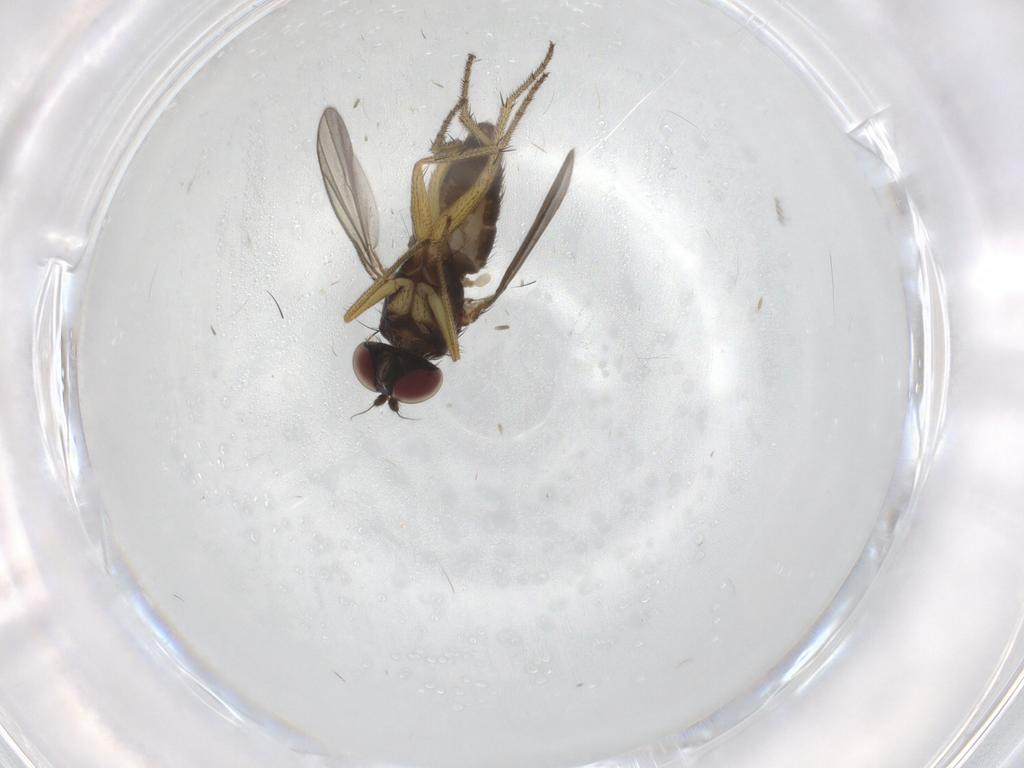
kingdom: Animalia
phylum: Arthropoda
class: Insecta
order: Diptera
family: Dolichopodidae
